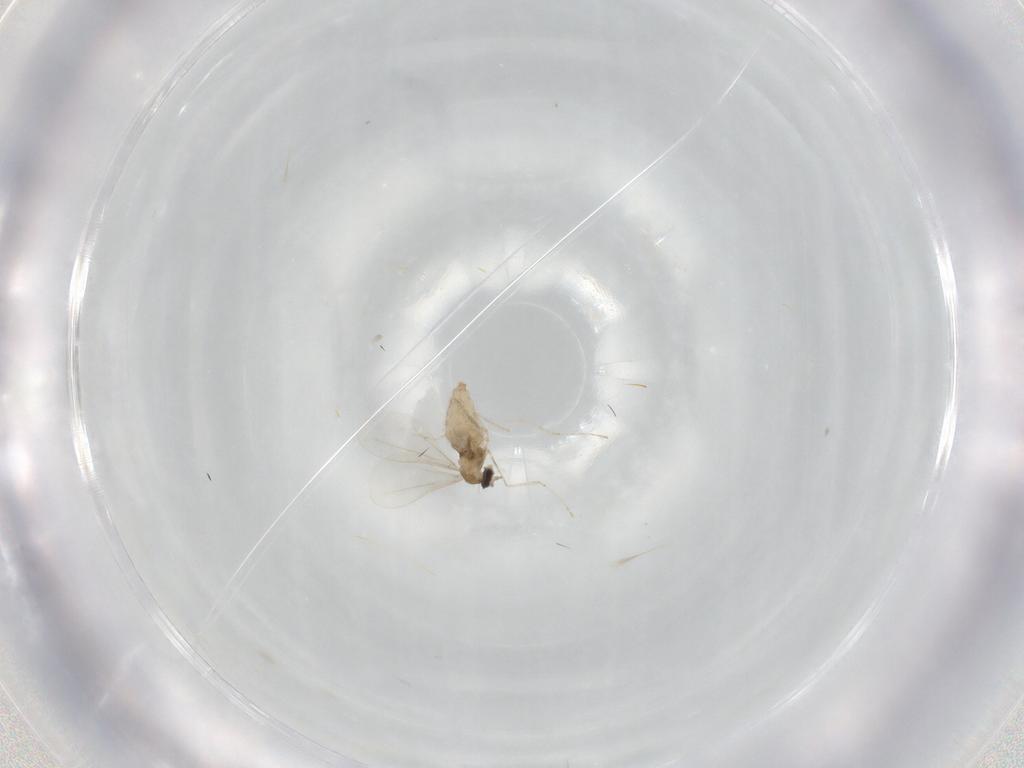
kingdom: Animalia
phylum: Arthropoda
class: Insecta
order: Diptera
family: Cecidomyiidae
